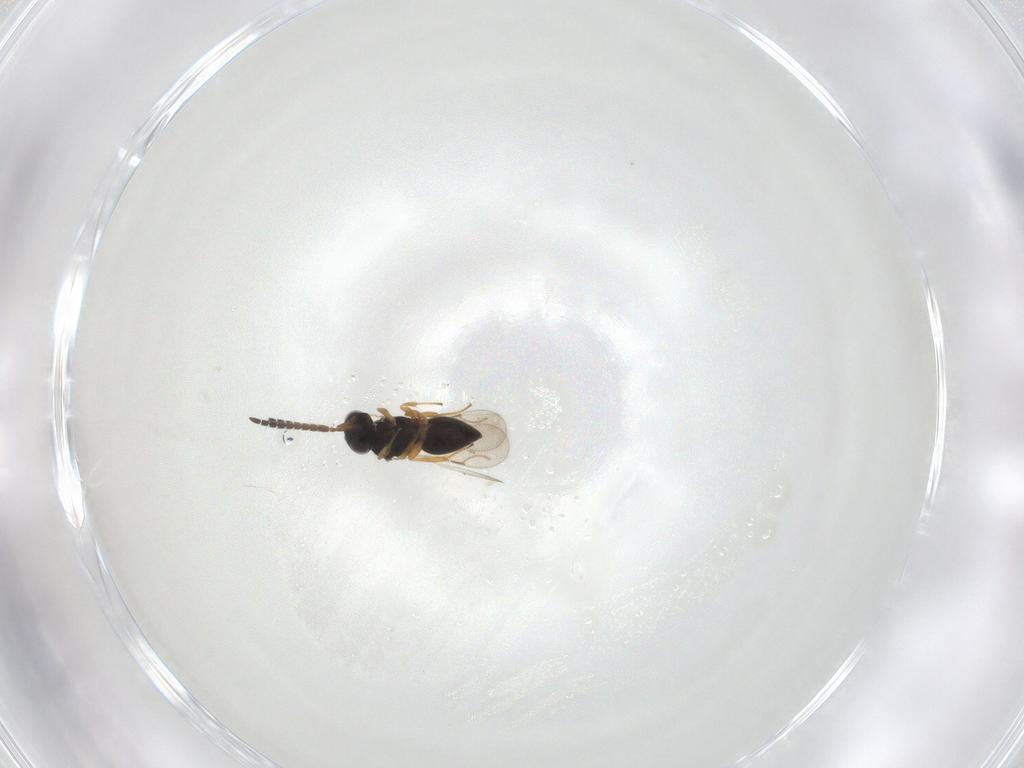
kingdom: Animalia
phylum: Arthropoda
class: Insecta
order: Hymenoptera
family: Ceraphronidae
